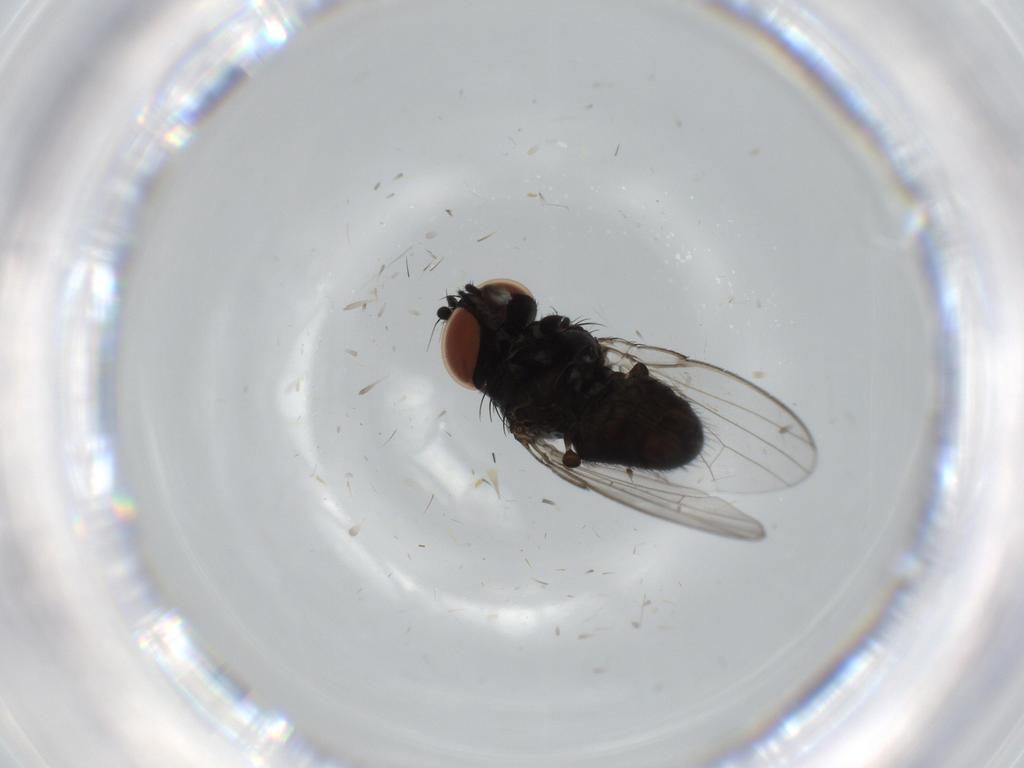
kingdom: Animalia
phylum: Arthropoda
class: Insecta
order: Diptera
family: Milichiidae
